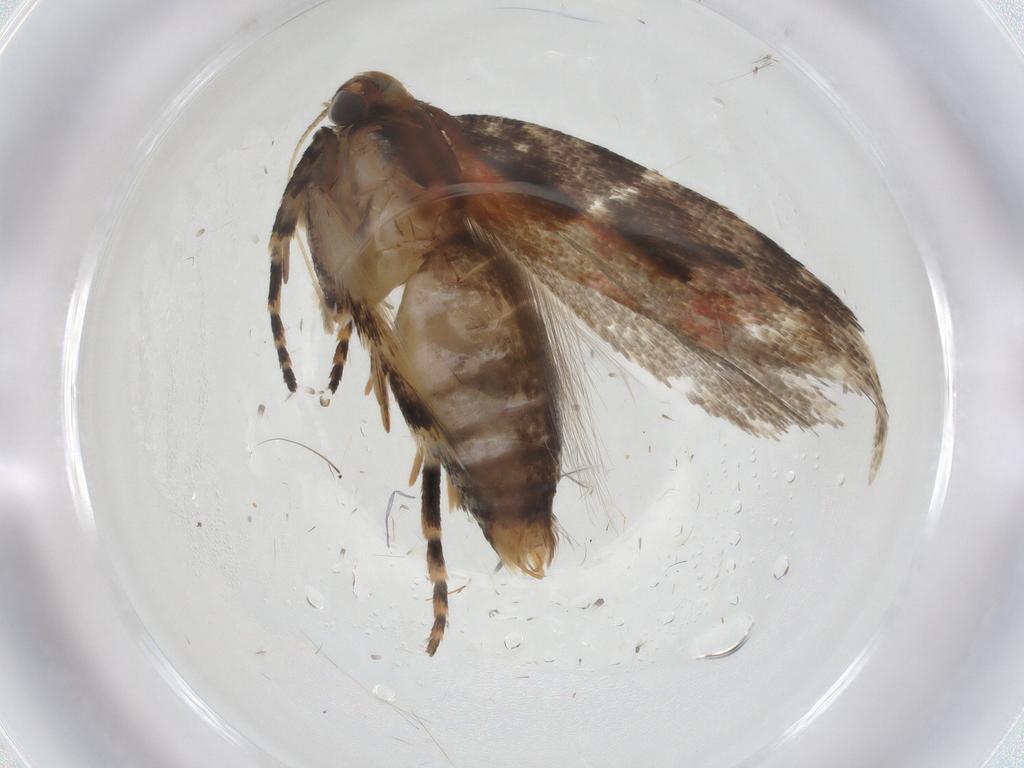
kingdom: Animalia
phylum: Arthropoda
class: Insecta
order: Lepidoptera
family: Gelechiidae
